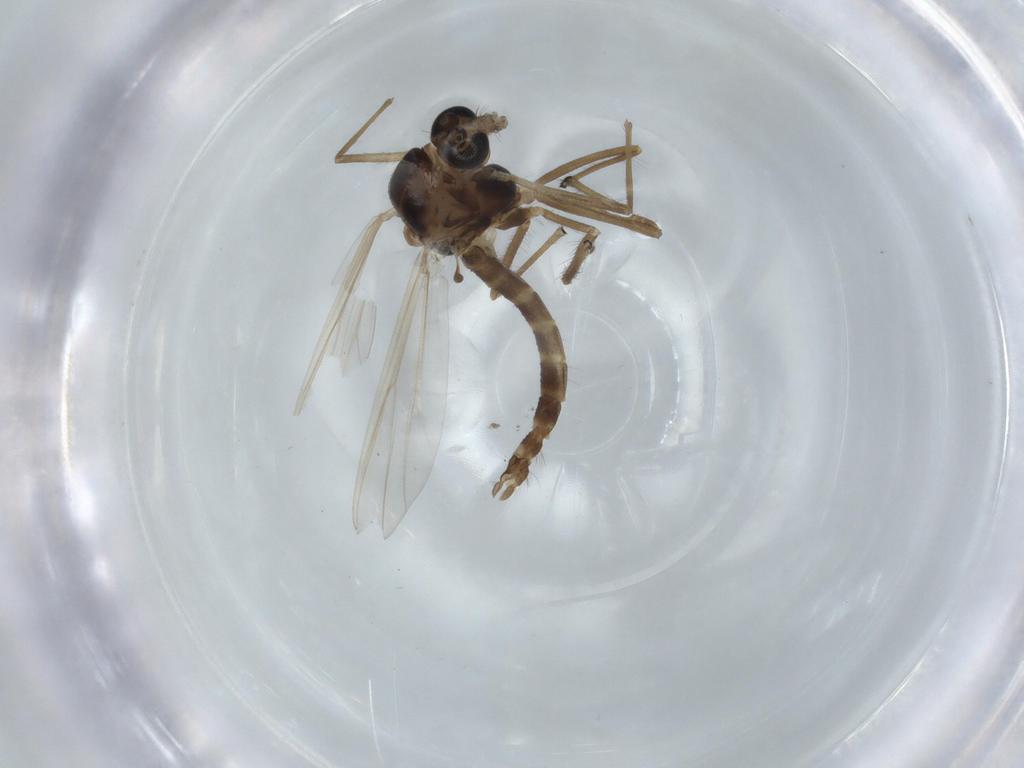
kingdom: Animalia
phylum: Arthropoda
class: Insecta
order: Diptera
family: Chironomidae
